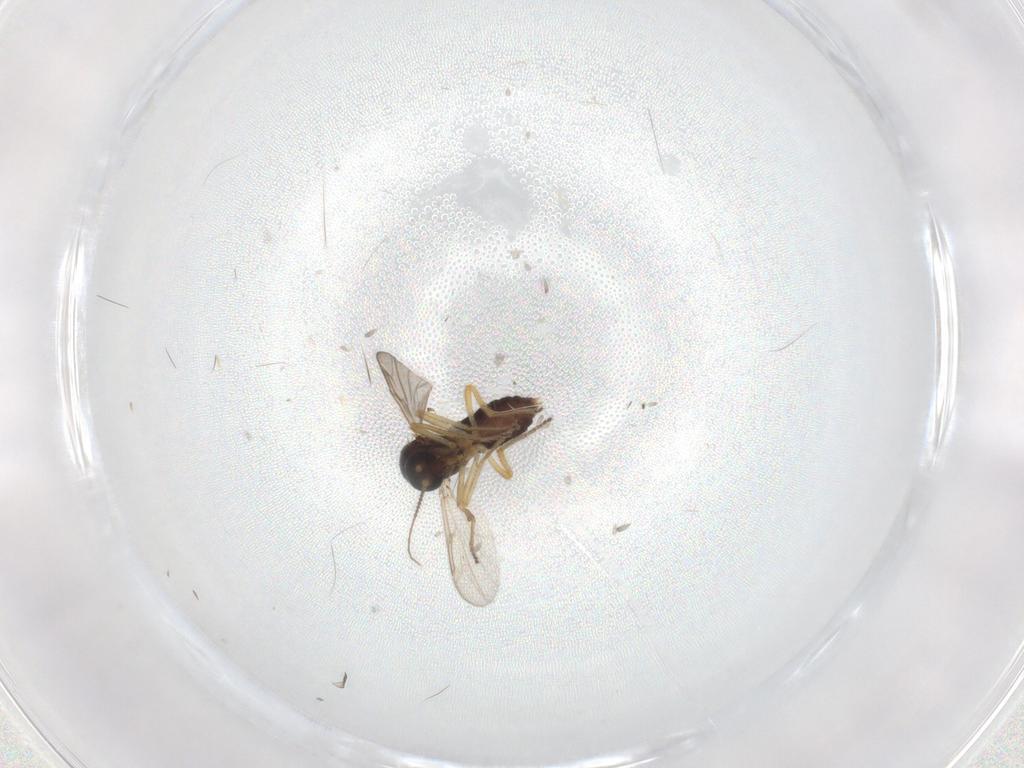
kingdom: Animalia
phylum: Arthropoda
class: Insecta
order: Diptera
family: Ceratopogonidae
